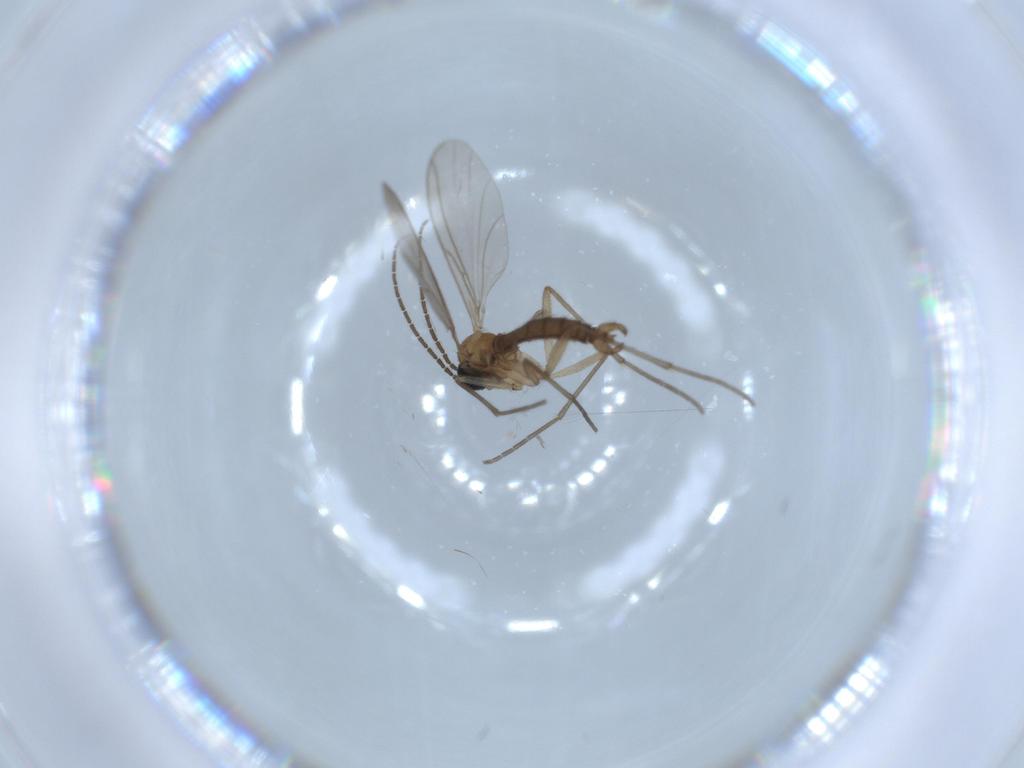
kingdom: Animalia
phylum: Arthropoda
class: Insecta
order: Diptera
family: Sciaridae
